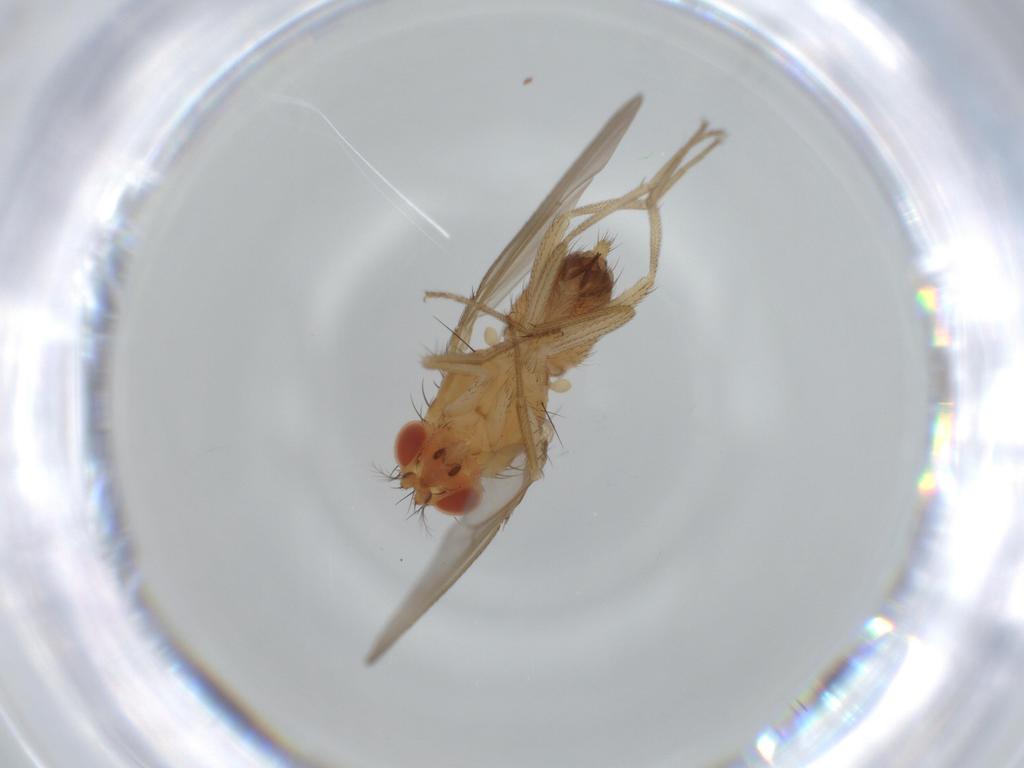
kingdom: Animalia
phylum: Arthropoda
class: Insecta
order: Diptera
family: Drosophilidae
